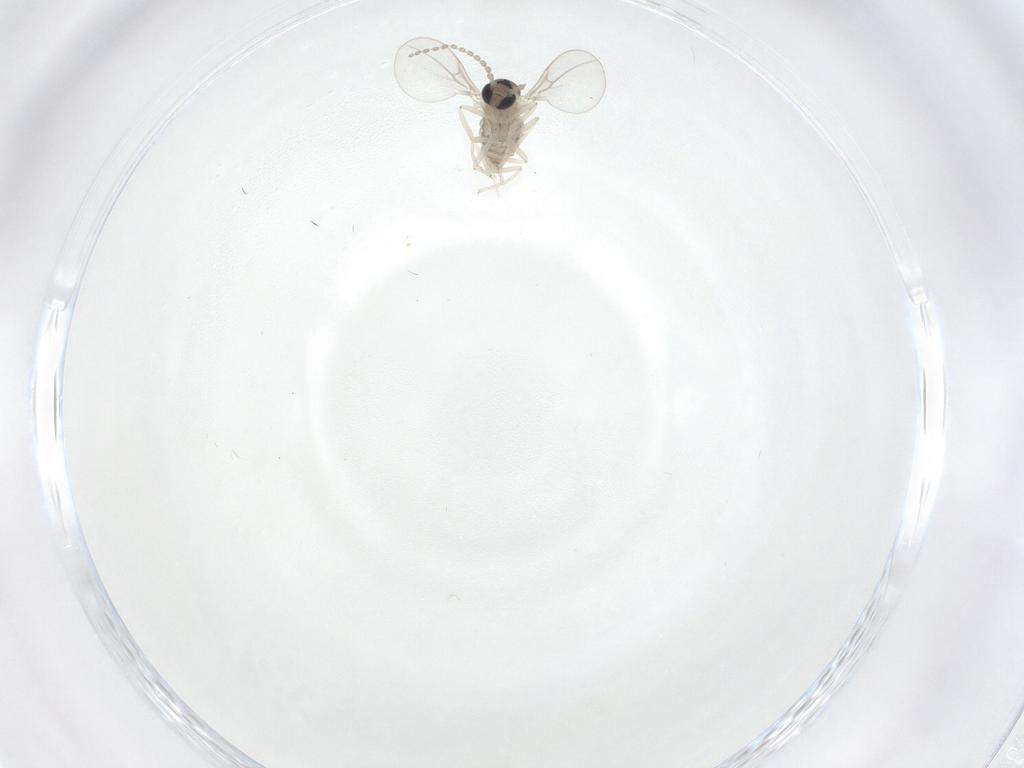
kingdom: Animalia
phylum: Arthropoda
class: Insecta
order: Diptera
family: Cecidomyiidae
